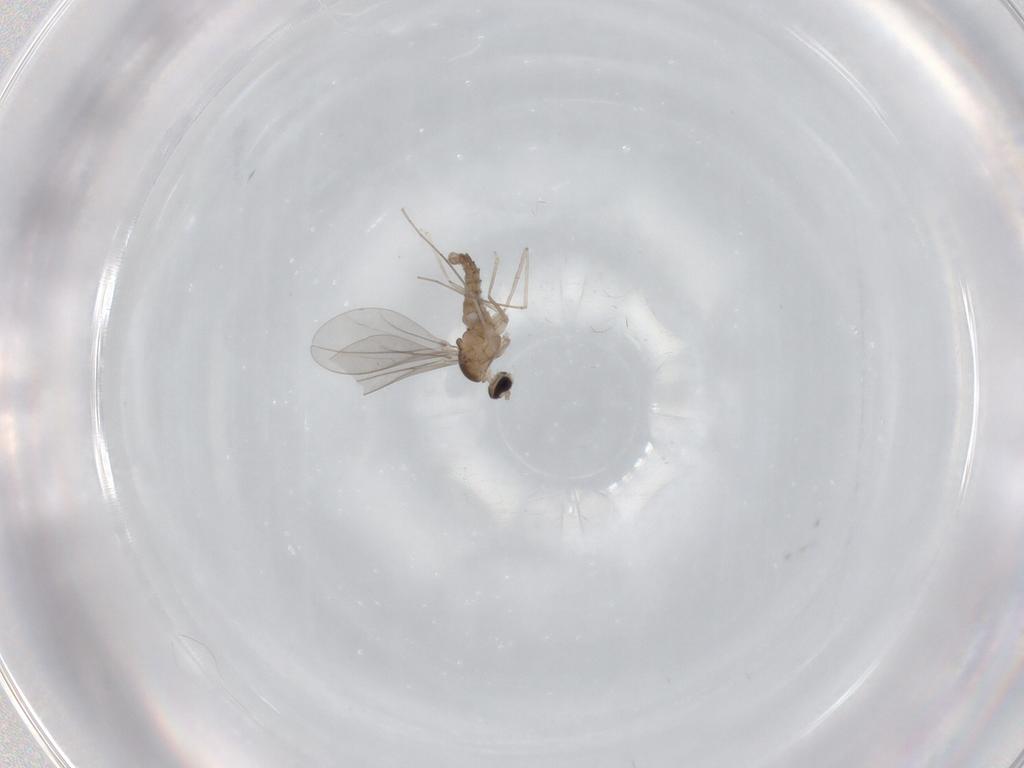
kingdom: Animalia
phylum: Arthropoda
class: Insecta
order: Diptera
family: Cecidomyiidae
